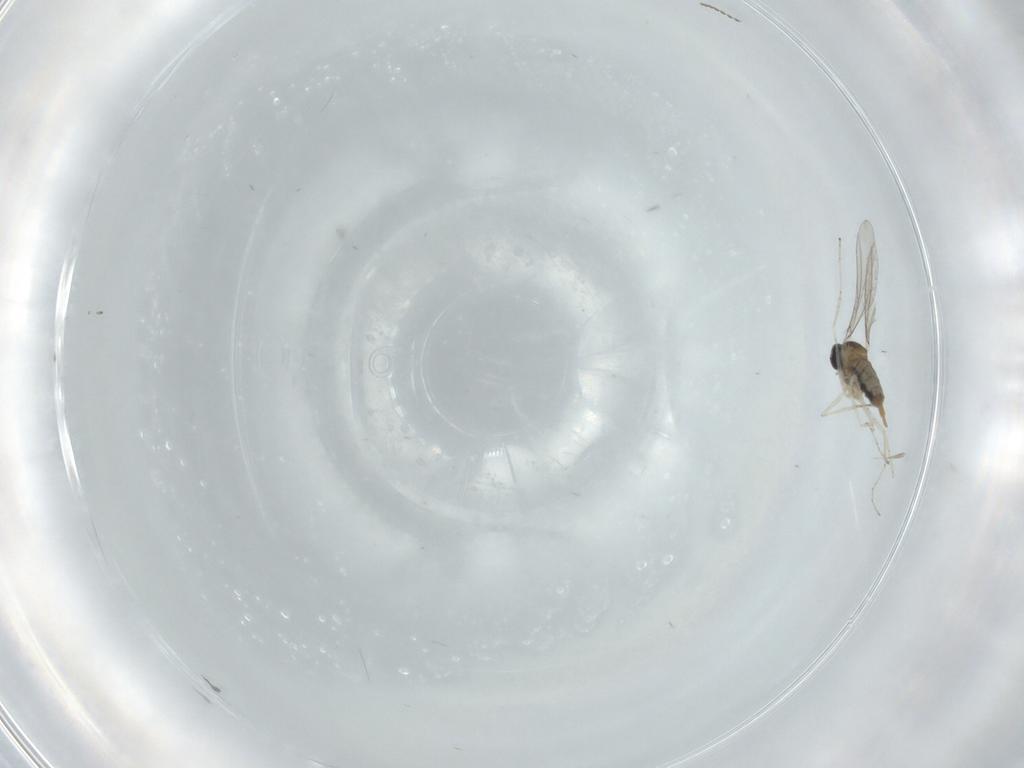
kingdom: Animalia
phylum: Arthropoda
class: Insecta
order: Diptera
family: Cecidomyiidae
